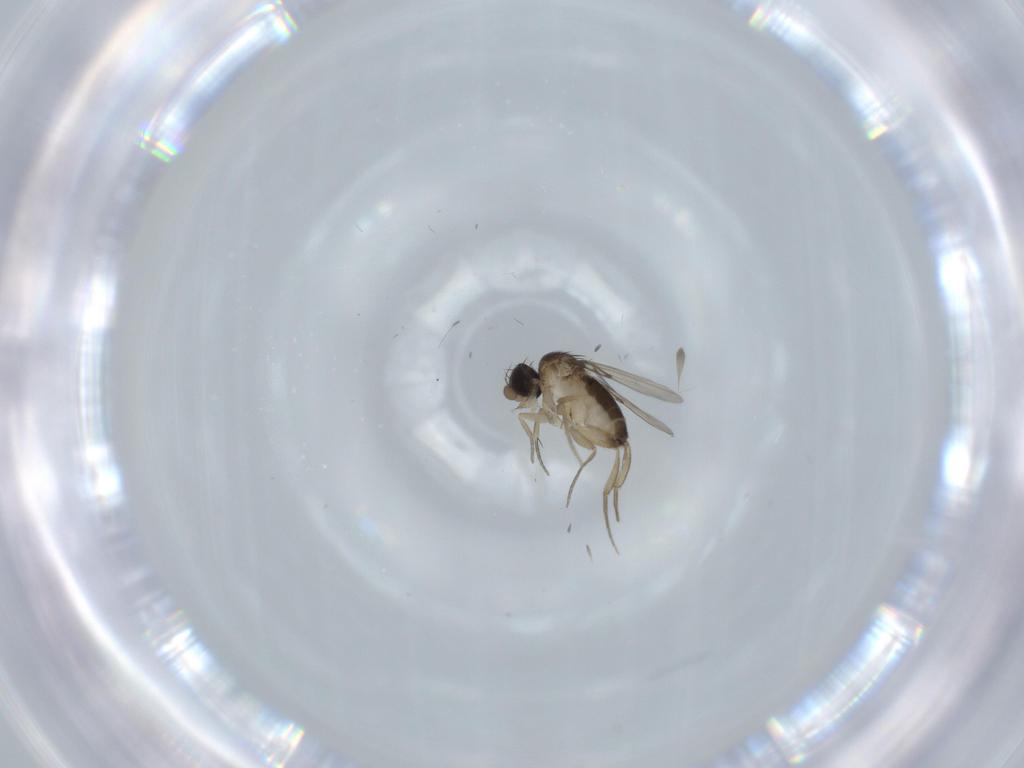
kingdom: Animalia
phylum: Arthropoda
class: Insecta
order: Diptera
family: Phoridae
